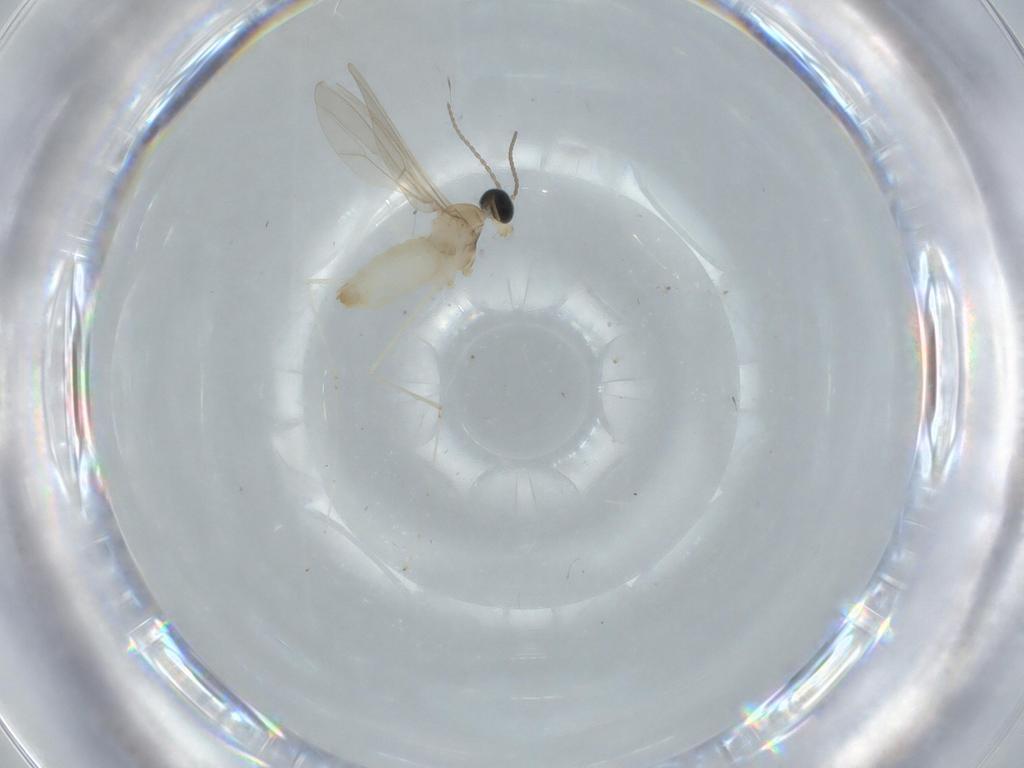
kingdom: Animalia
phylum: Arthropoda
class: Insecta
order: Diptera
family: Cecidomyiidae
